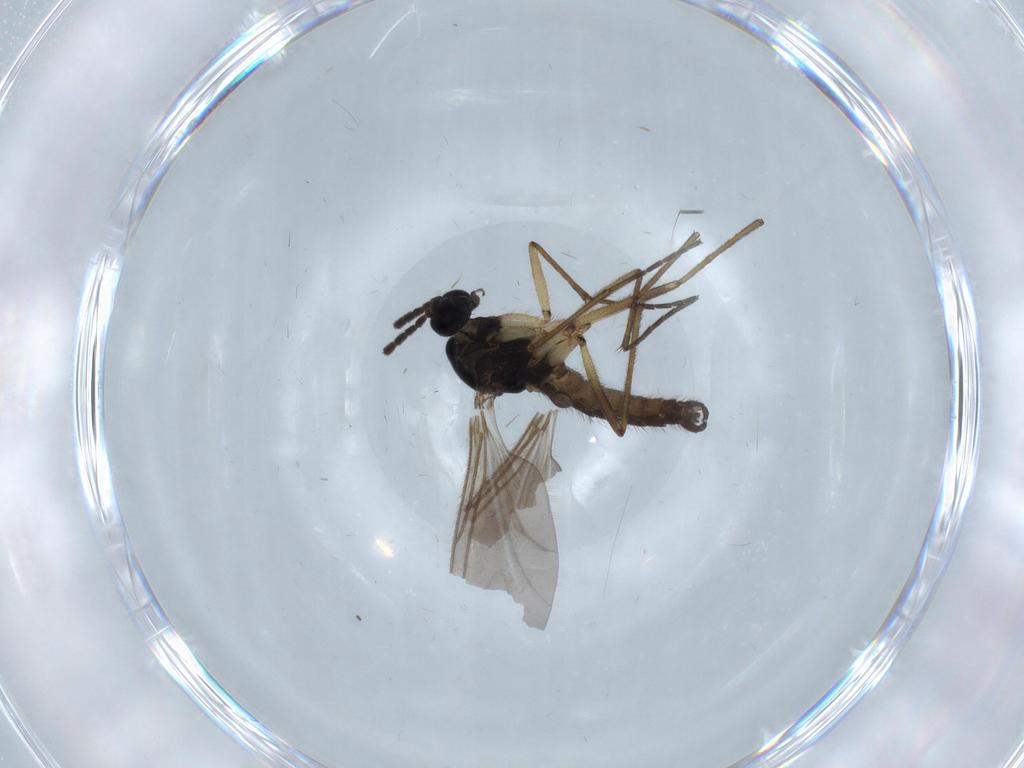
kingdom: Animalia
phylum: Arthropoda
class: Insecta
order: Diptera
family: Sciaridae
